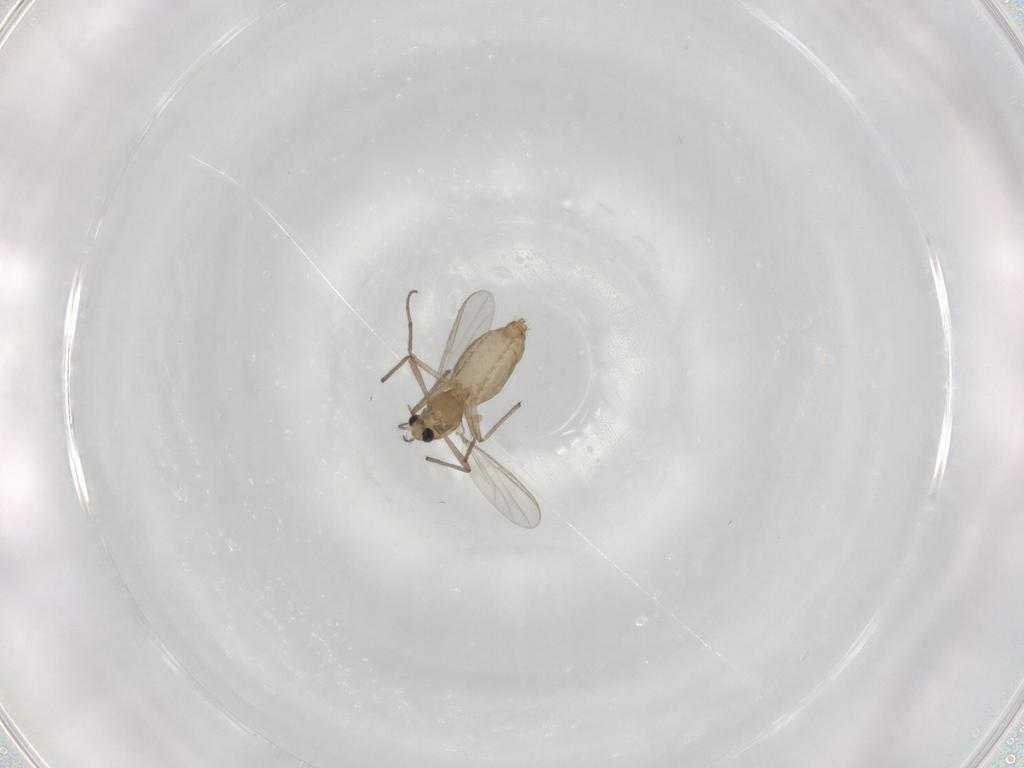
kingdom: Animalia
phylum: Arthropoda
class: Insecta
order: Diptera
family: Chironomidae
